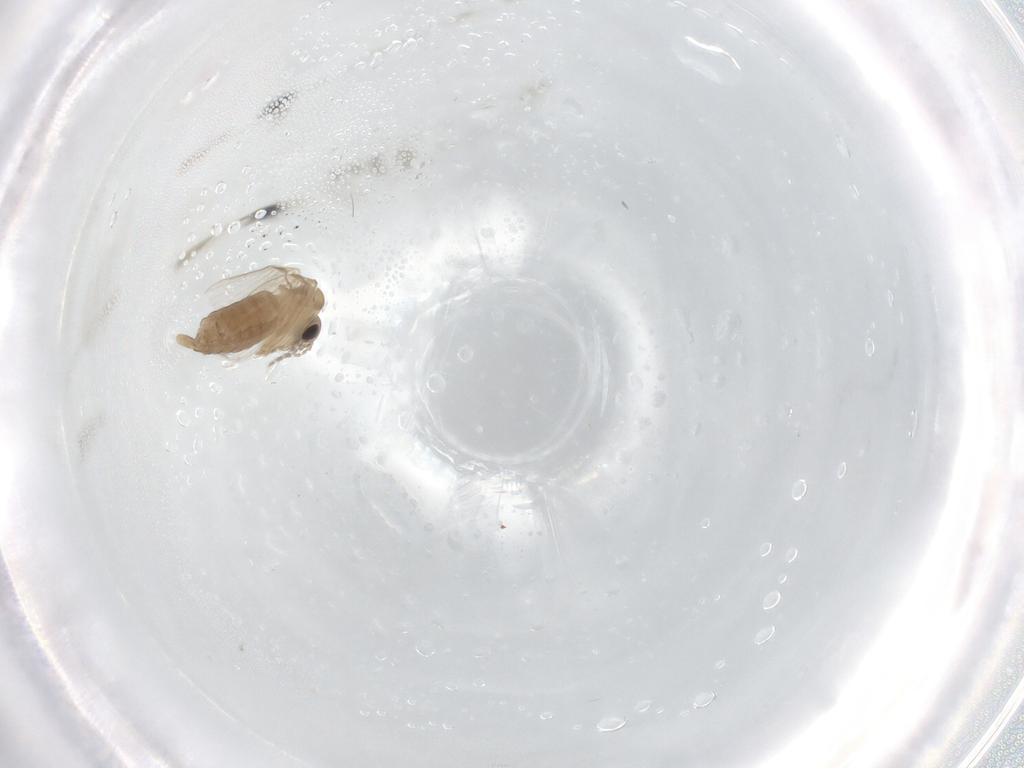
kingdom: Animalia
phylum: Arthropoda
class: Insecta
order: Diptera
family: Psychodidae
